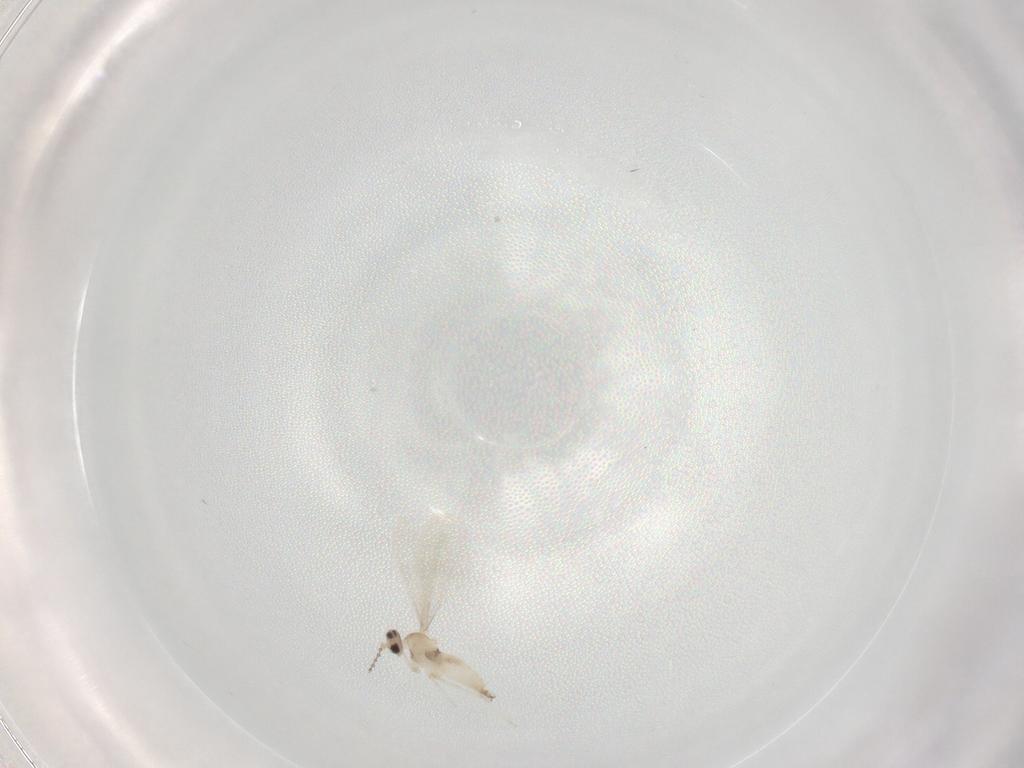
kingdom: Animalia
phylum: Arthropoda
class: Insecta
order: Diptera
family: Cecidomyiidae
